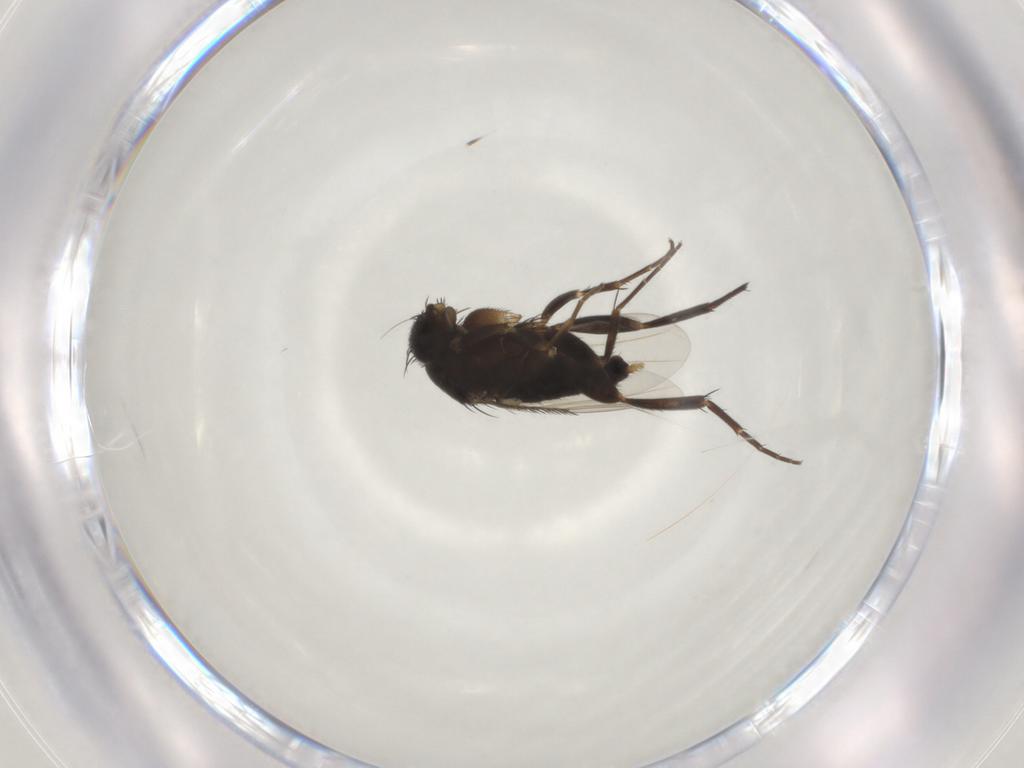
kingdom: Animalia
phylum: Arthropoda
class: Insecta
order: Diptera
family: Phoridae
